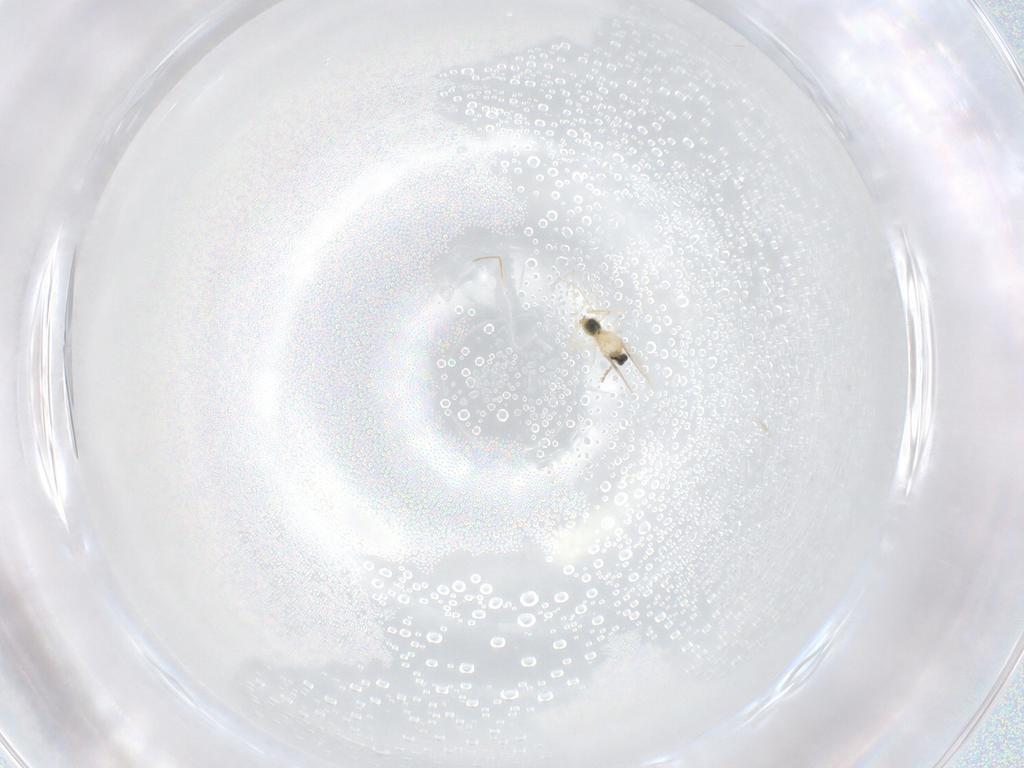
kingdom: Animalia
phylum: Arthropoda
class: Insecta
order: Diptera
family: Cecidomyiidae
